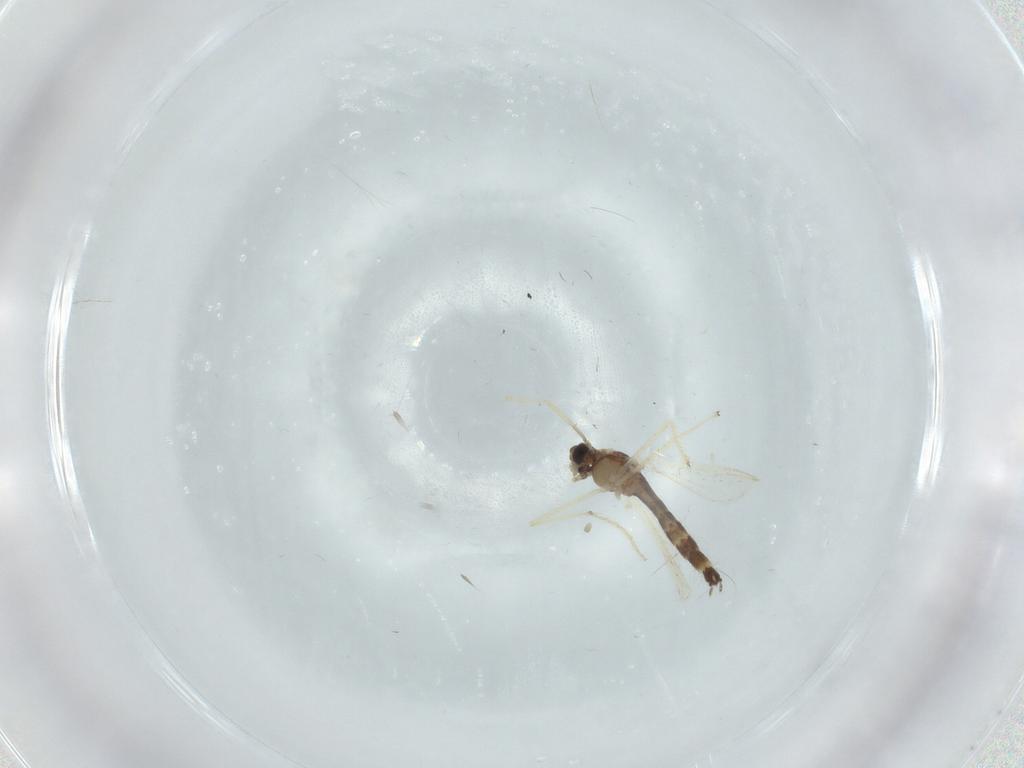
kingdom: Animalia
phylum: Arthropoda
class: Insecta
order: Diptera
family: Chironomidae
